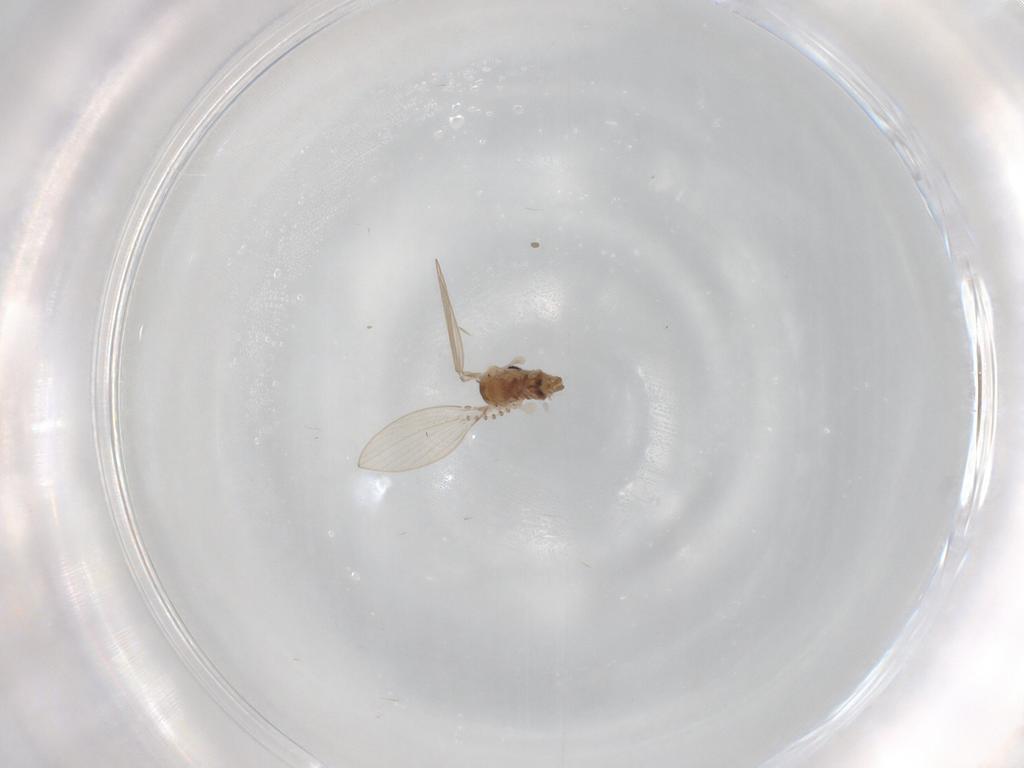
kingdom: Animalia
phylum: Arthropoda
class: Insecta
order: Diptera
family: Psychodidae
